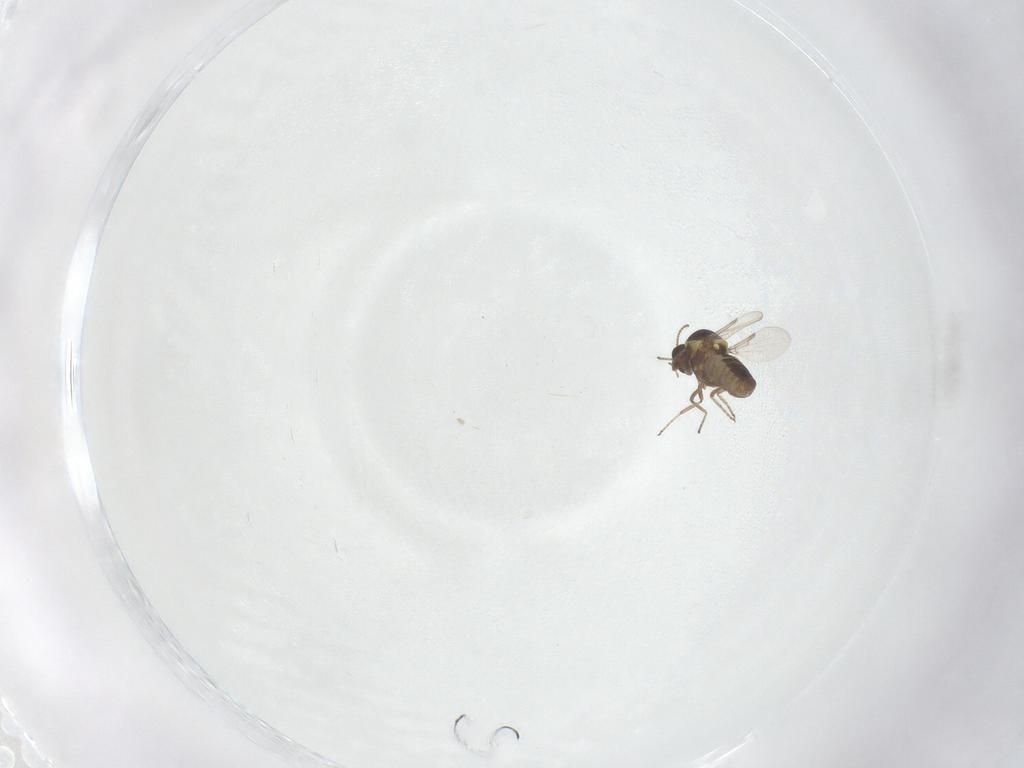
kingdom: Animalia
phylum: Arthropoda
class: Insecta
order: Diptera
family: Ceratopogonidae
